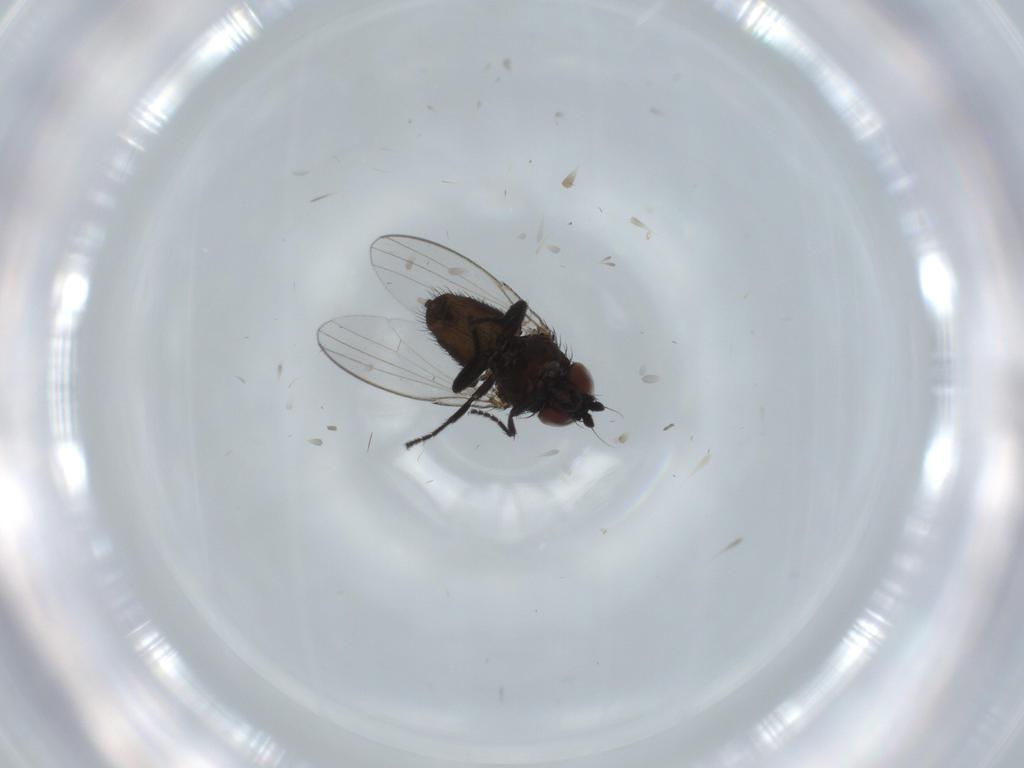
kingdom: Animalia
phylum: Arthropoda
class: Insecta
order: Diptera
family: Phoridae
